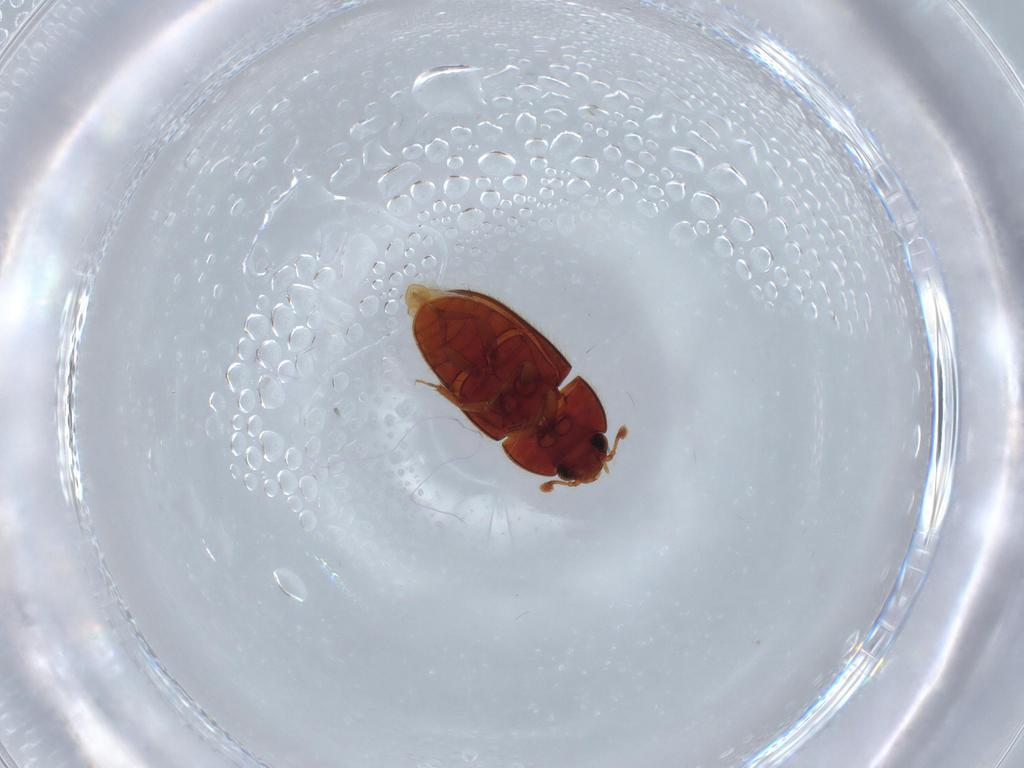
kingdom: Animalia
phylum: Arthropoda
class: Insecta
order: Coleoptera
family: Biphyllidae
